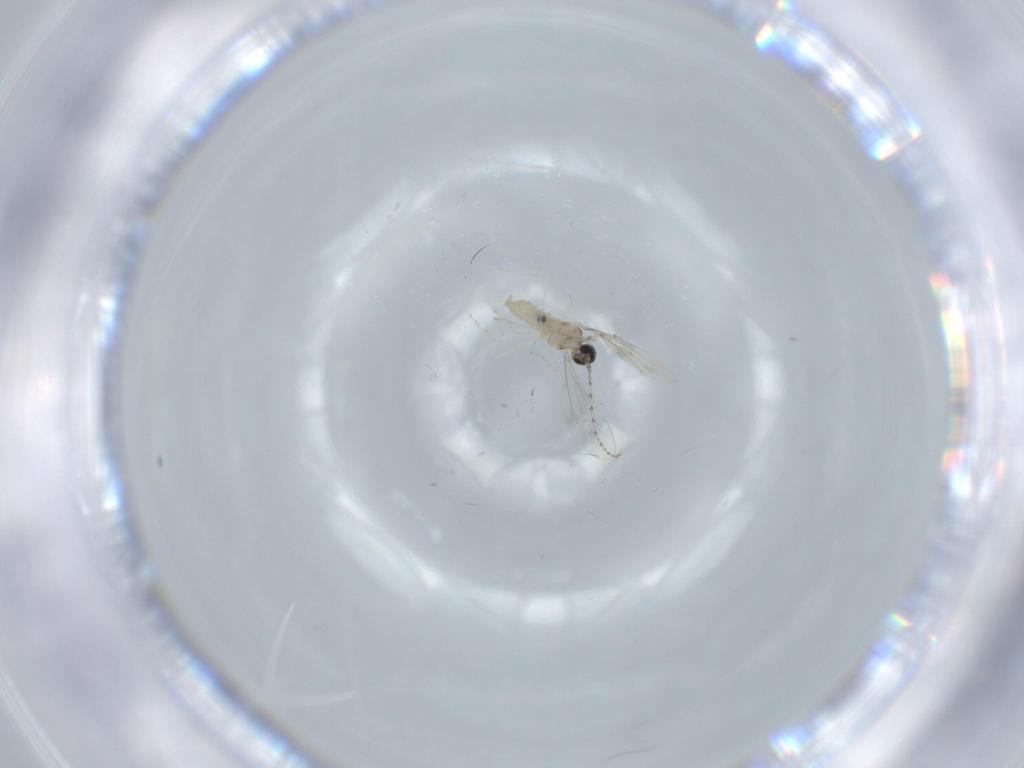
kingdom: Animalia
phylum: Arthropoda
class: Insecta
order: Diptera
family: Cecidomyiidae
